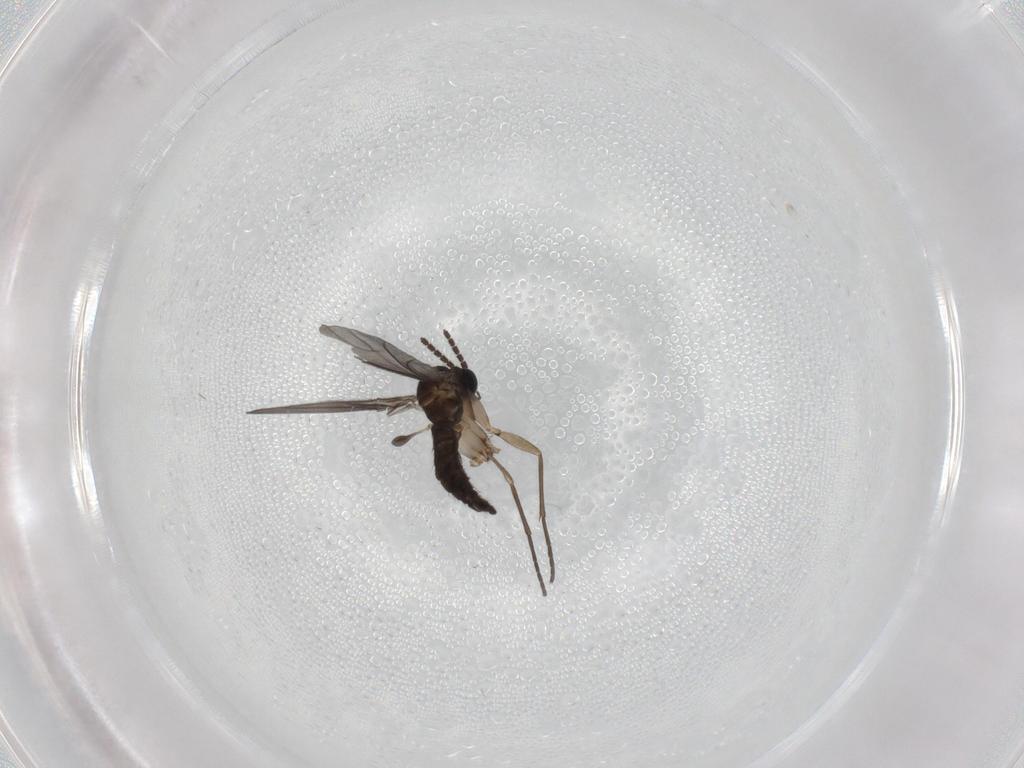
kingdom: Animalia
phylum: Arthropoda
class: Insecta
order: Diptera
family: Sciaridae
